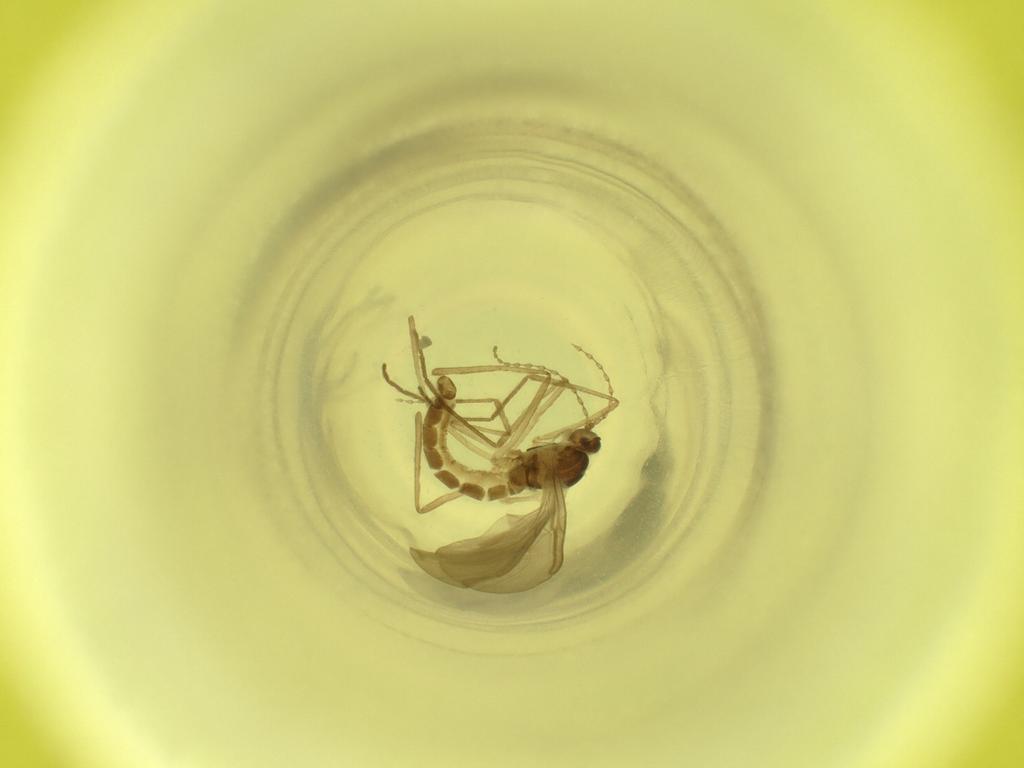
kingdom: Animalia
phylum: Arthropoda
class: Insecta
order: Diptera
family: Cecidomyiidae
